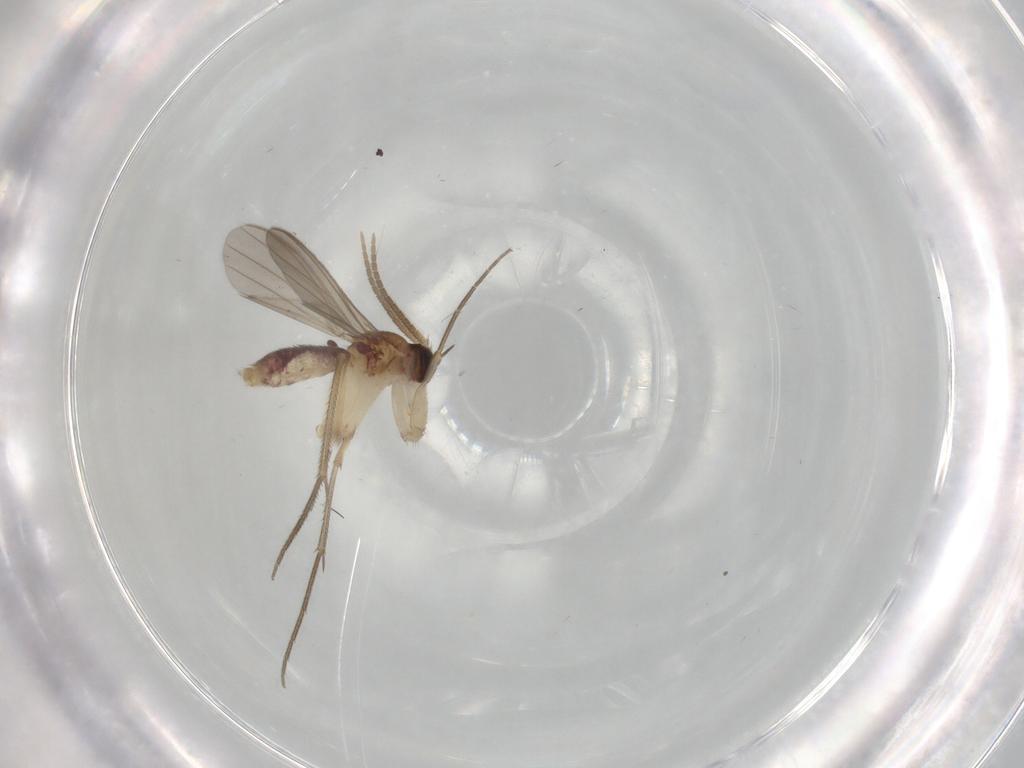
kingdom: Animalia
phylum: Arthropoda
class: Insecta
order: Diptera
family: Mycetophilidae
